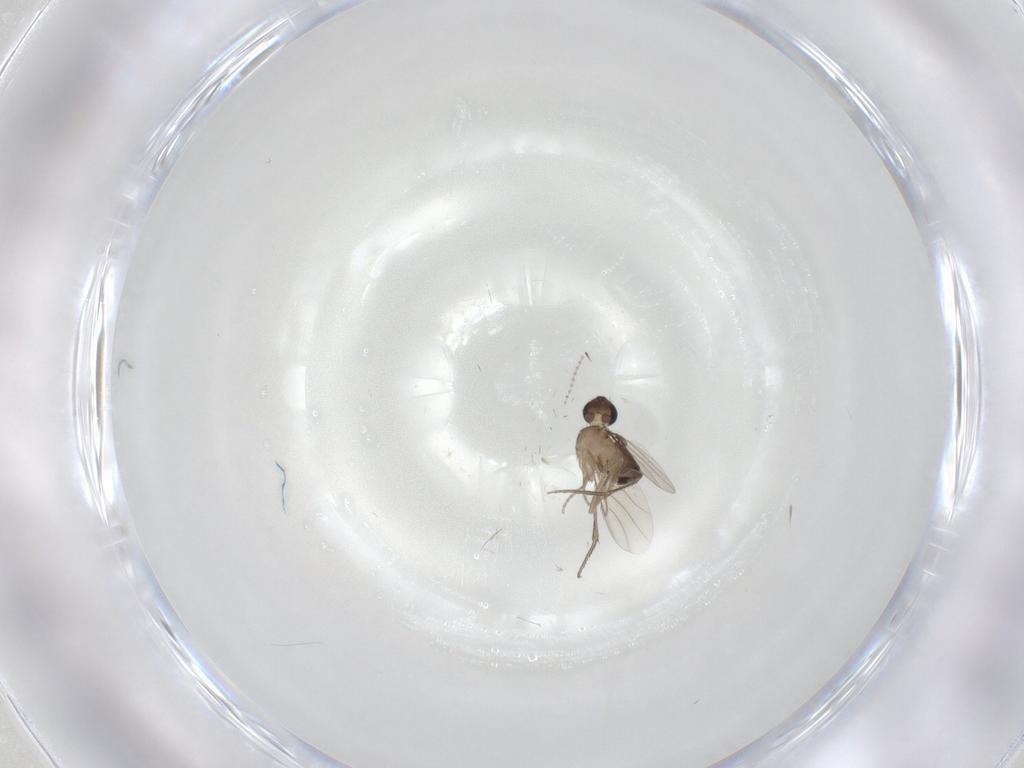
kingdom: Animalia
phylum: Arthropoda
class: Insecta
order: Diptera
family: Phoridae
